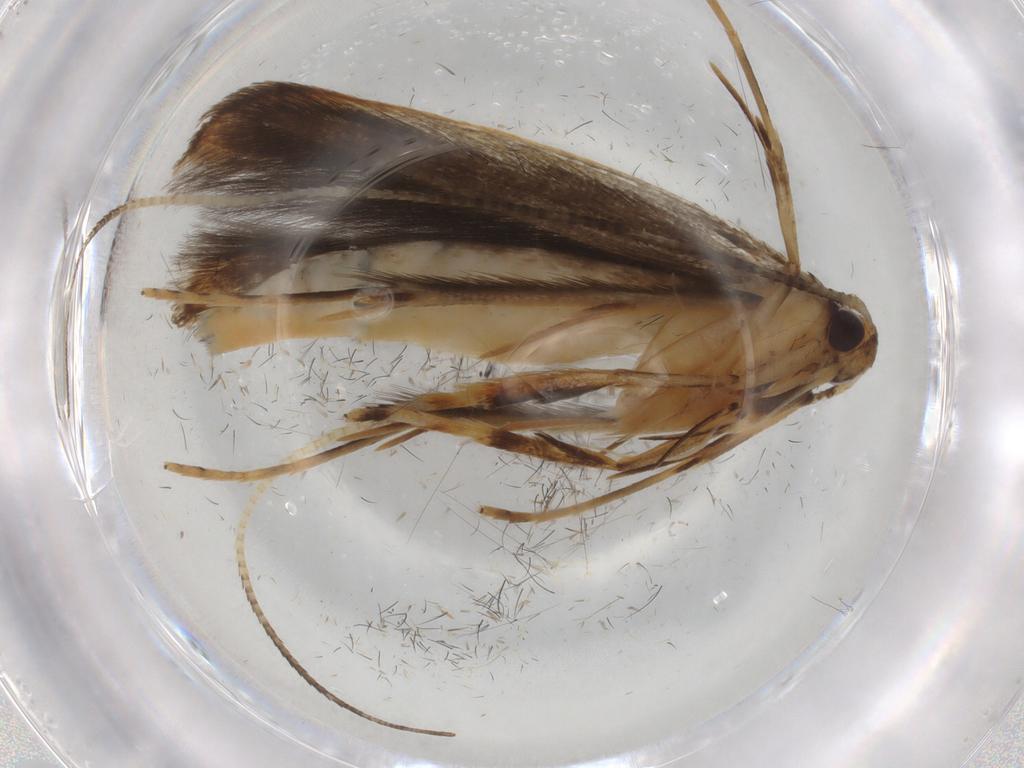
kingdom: Animalia
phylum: Arthropoda
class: Insecta
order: Lepidoptera
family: Pterolonchidae
